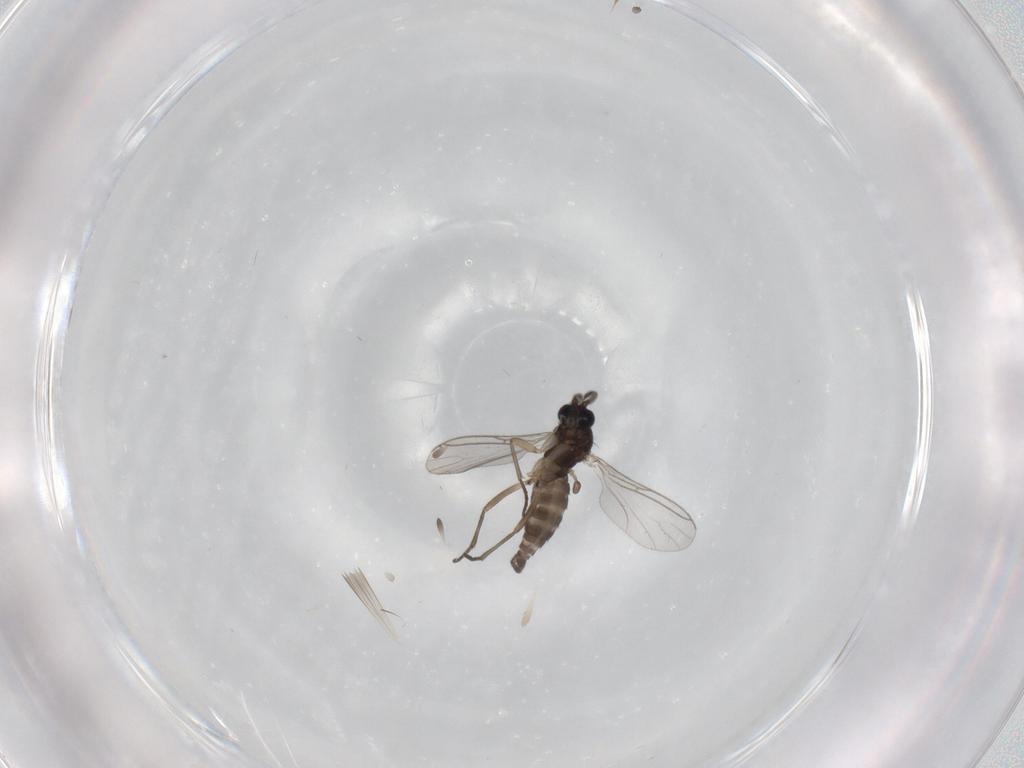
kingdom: Animalia
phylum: Arthropoda
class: Insecta
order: Diptera
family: Sciaridae
